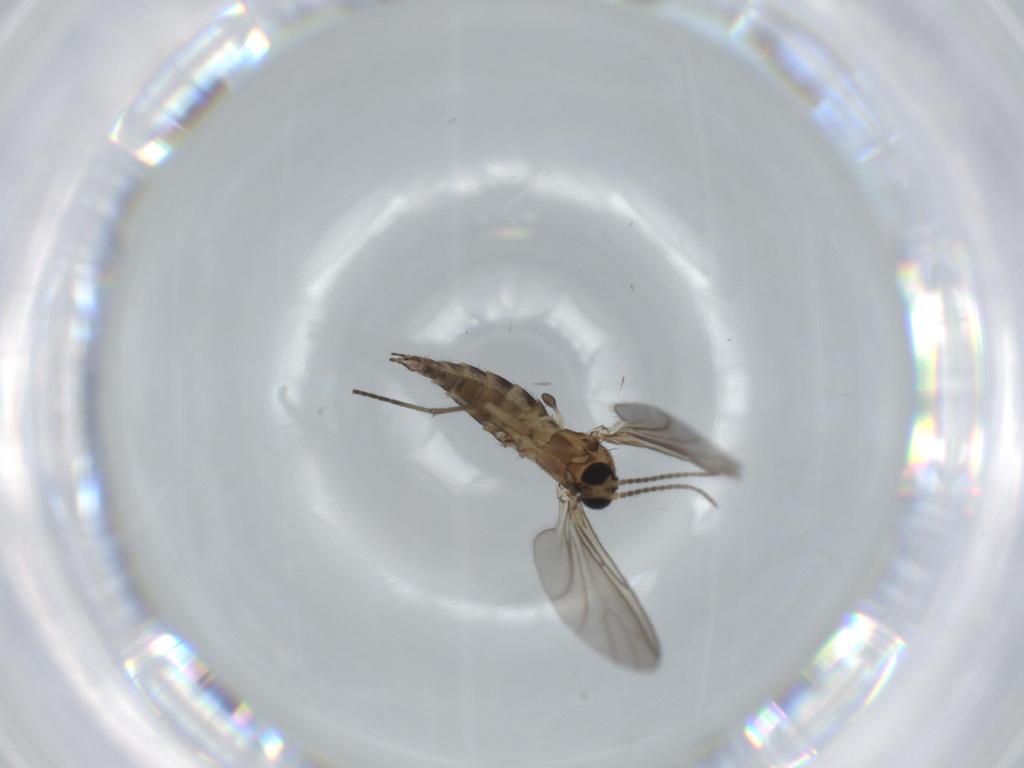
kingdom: Animalia
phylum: Arthropoda
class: Insecta
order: Diptera
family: Sciaridae
